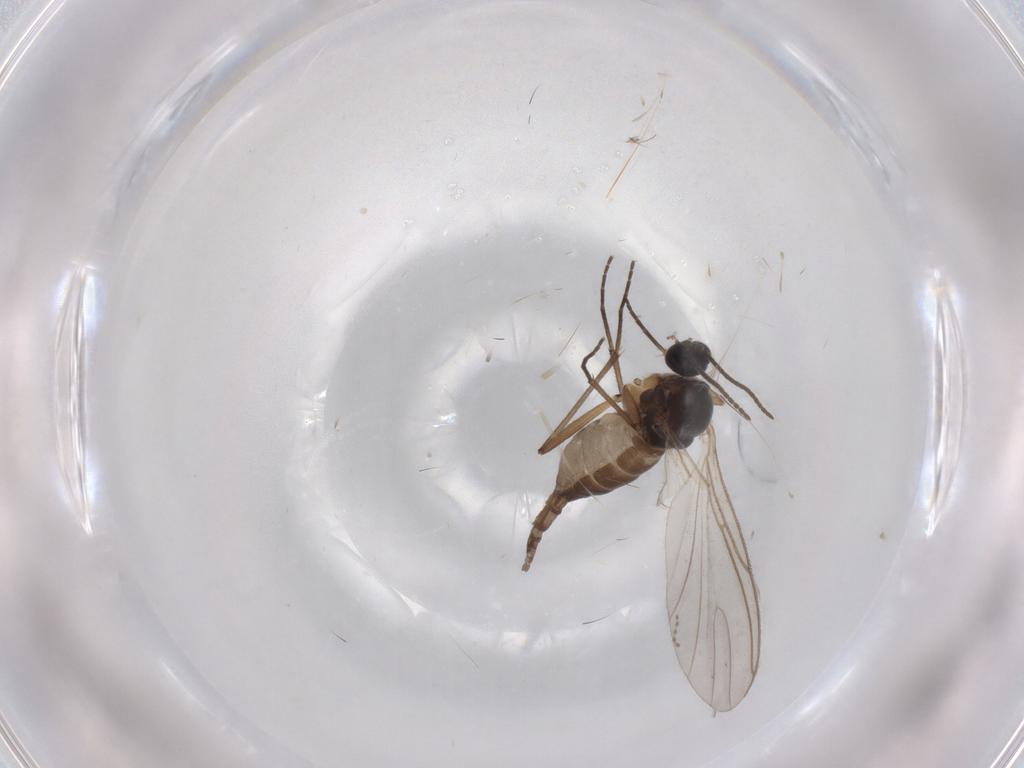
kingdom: Animalia
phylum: Arthropoda
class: Insecta
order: Diptera
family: Sciaridae
